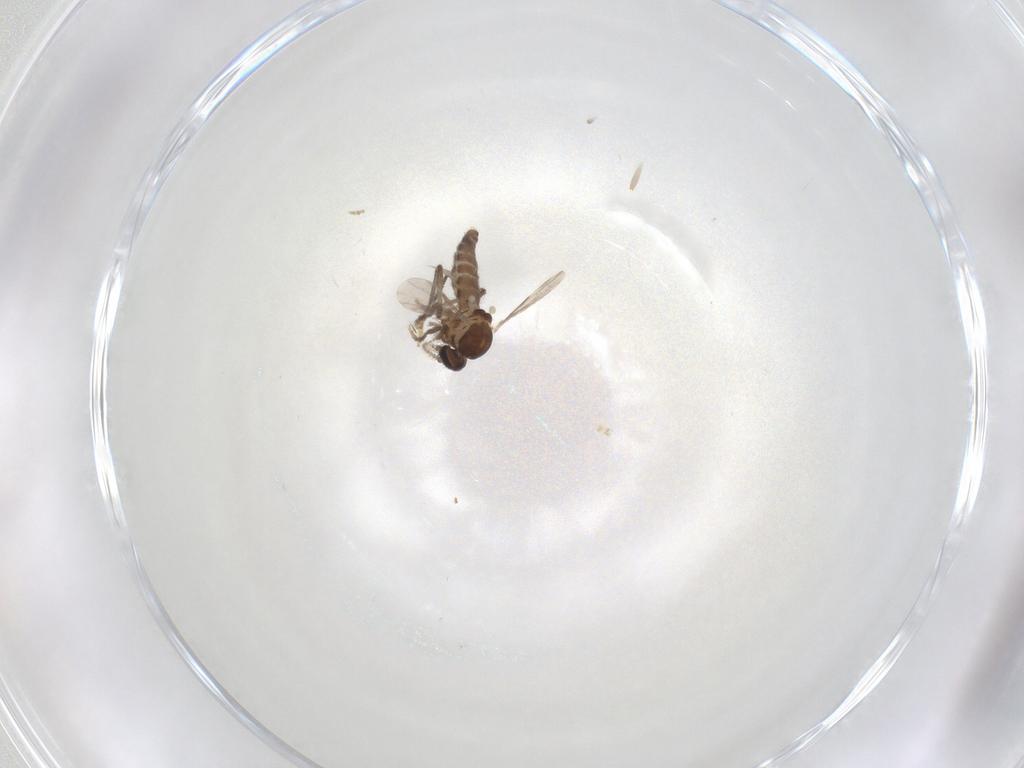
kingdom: Animalia
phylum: Arthropoda
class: Insecta
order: Diptera
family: Ceratopogonidae
